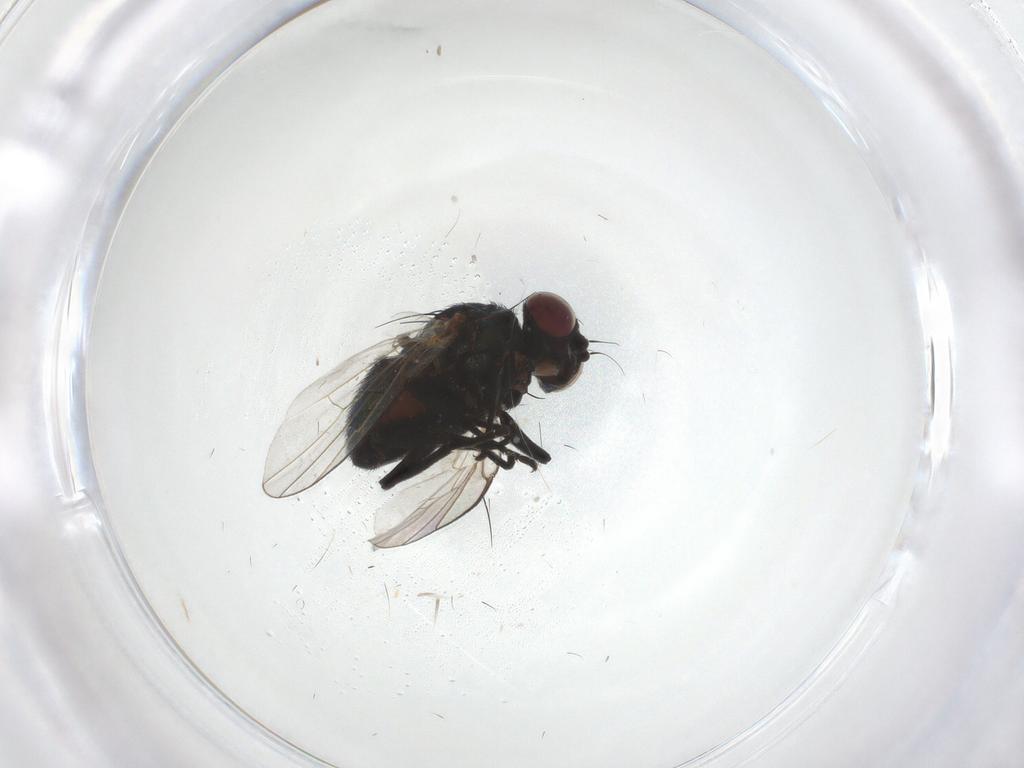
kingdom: Animalia
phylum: Arthropoda
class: Insecta
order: Diptera
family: Agromyzidae
